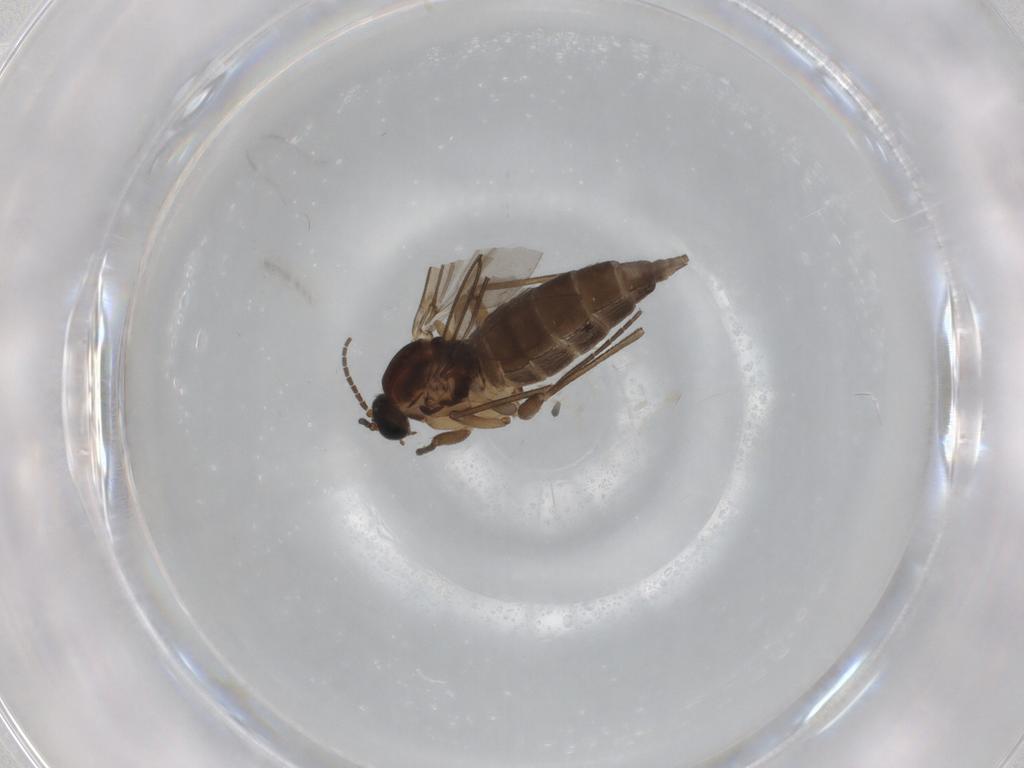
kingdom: Animalia
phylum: Arthropoda
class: Insecta
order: Diptera
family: Sciaridae
